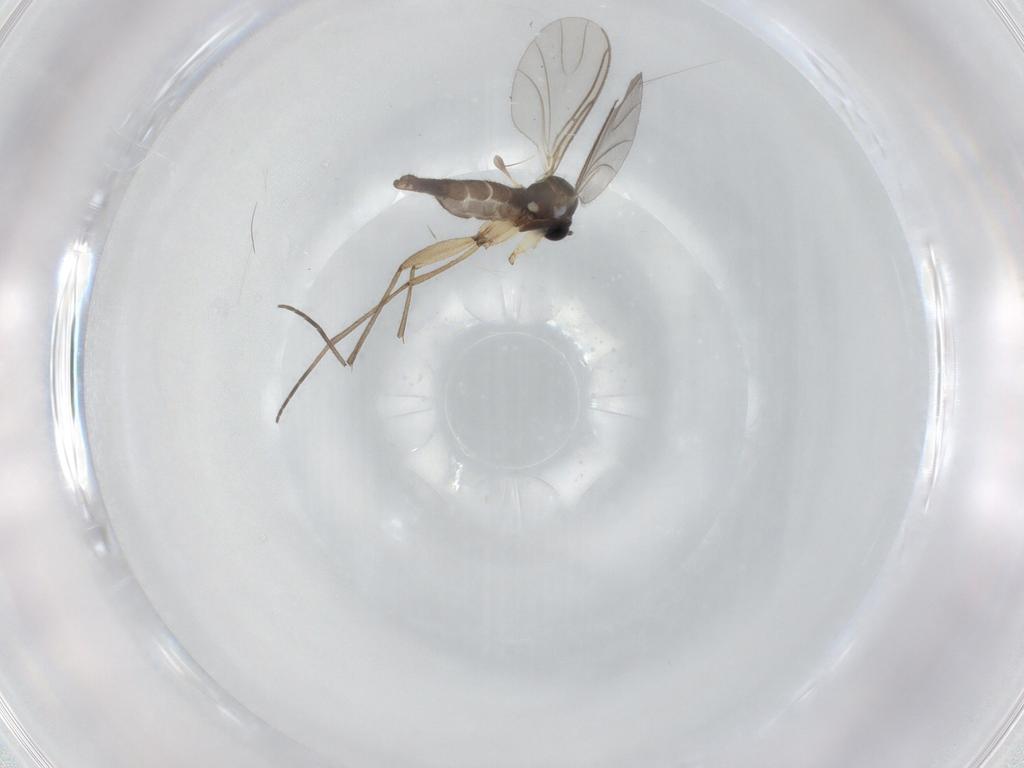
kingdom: Animalia
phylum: Arthropoda
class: Insecta
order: Diptera
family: Sciaridae
